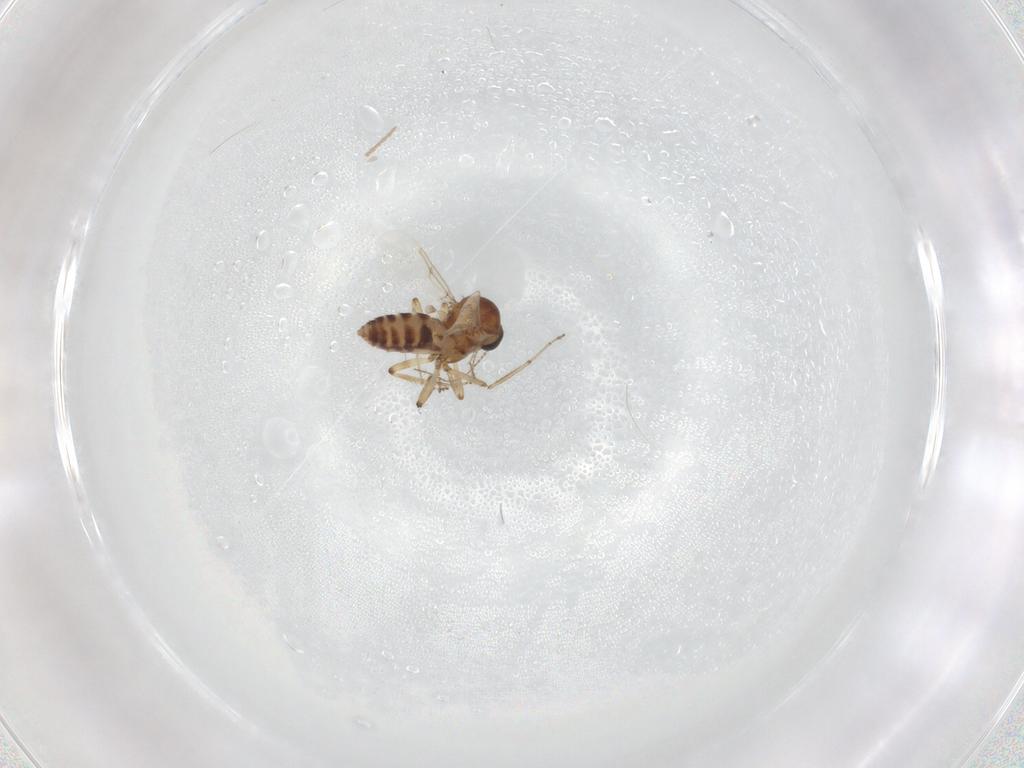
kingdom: Animalia
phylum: Arthropoda
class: Insecta
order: Diptera
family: Ceratopogonidae
